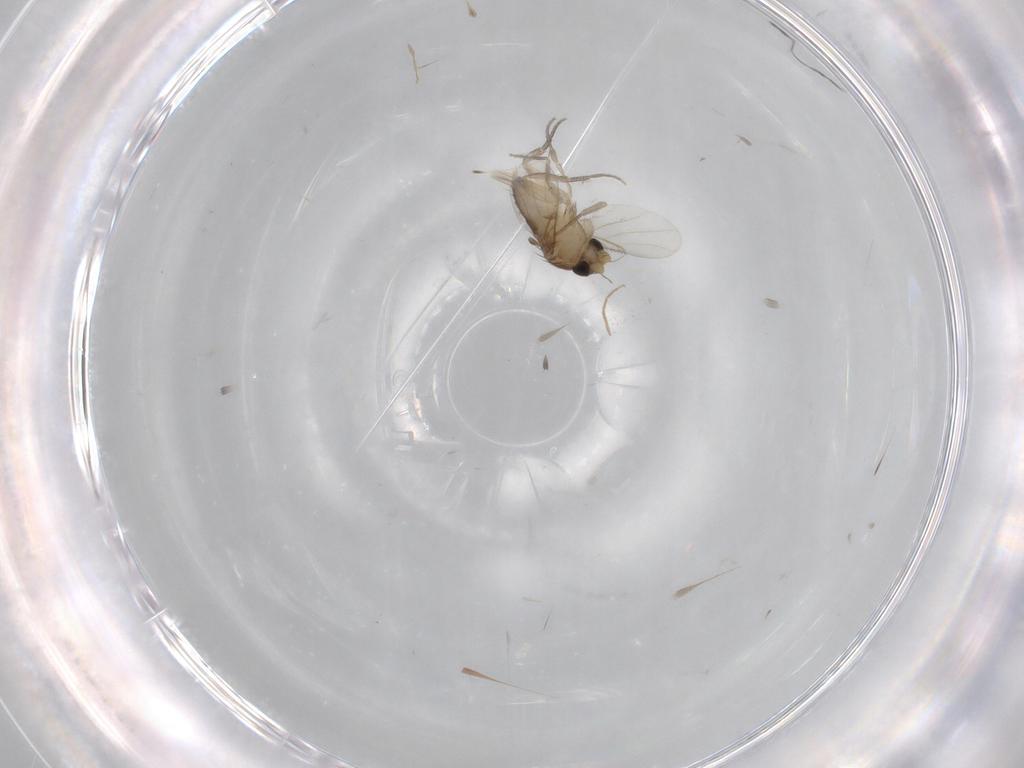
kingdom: Animalia
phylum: Arthropoda
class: Insecta
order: Diptera
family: Phoridae
